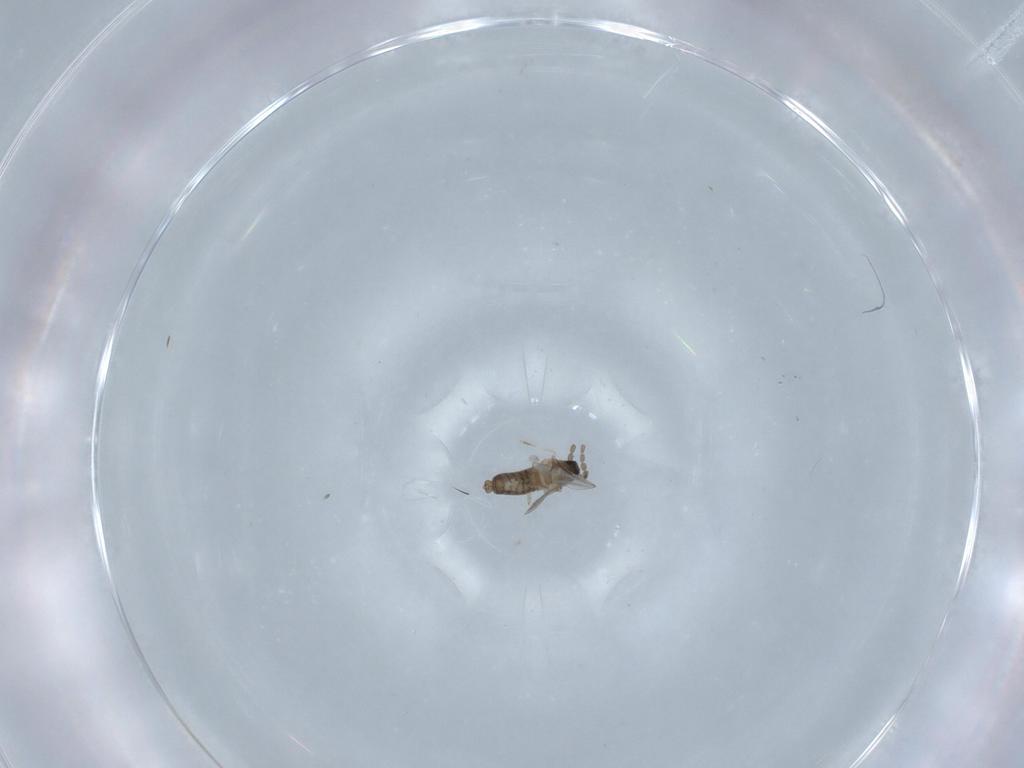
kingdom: Animalia
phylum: Arthropoda
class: Insecta
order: Diptera
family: Cecidomyiidae
